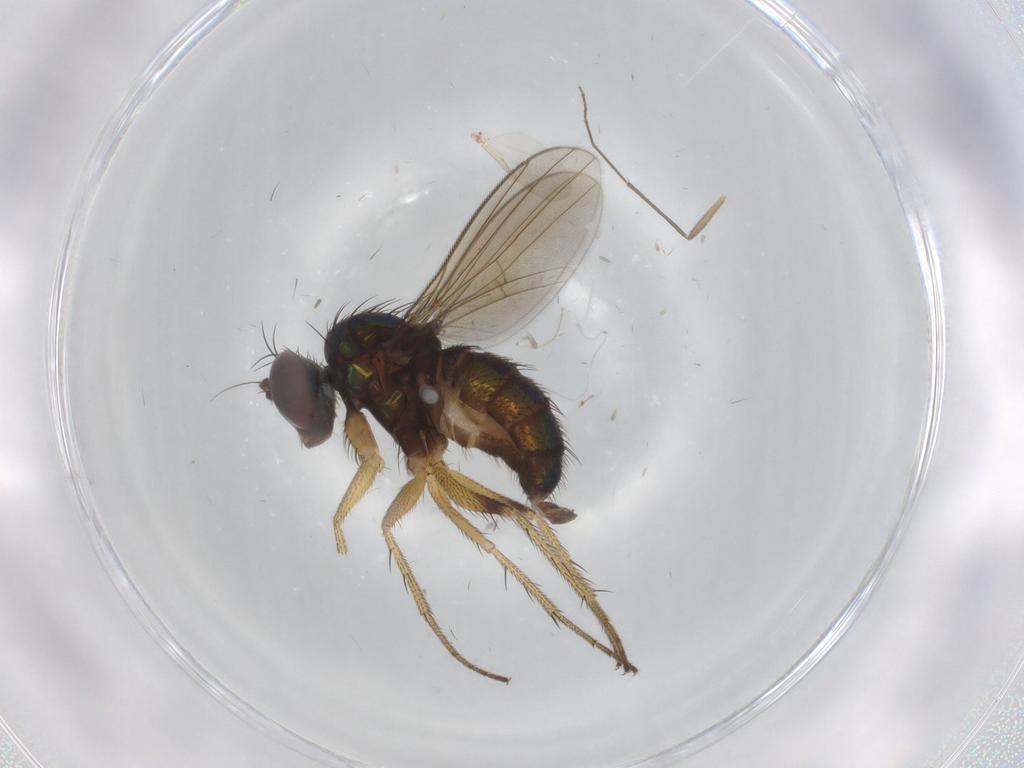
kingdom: Animalia
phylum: Arthropoda
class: Insecta
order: Diptera
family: Dolichopodidae
